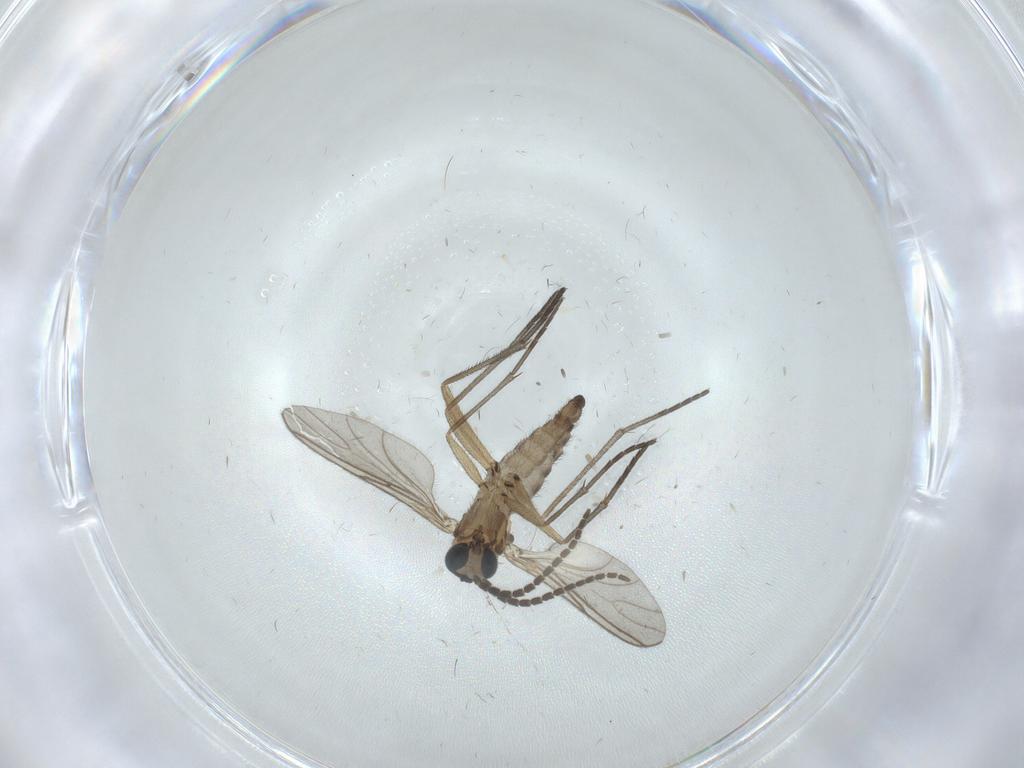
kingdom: Animalia
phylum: Arthropoda
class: Insecta
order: Diptera
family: Sciaridae
